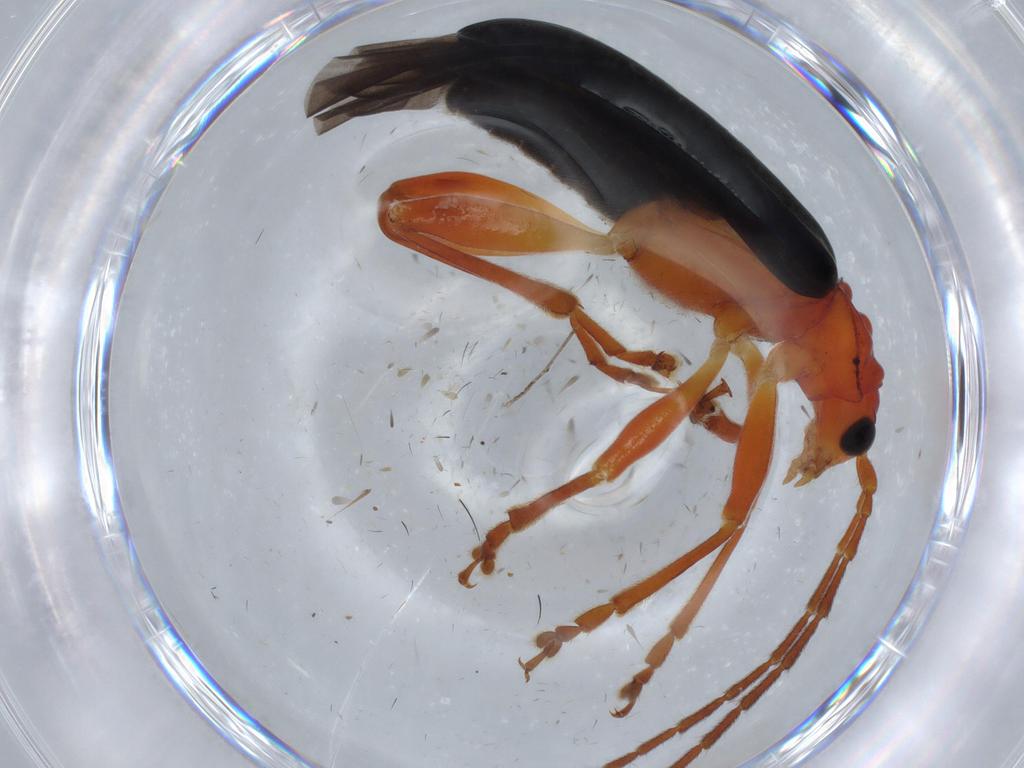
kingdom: Animalia
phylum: Arthropoda
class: Insecta
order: Coleoptera
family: Elateridae
